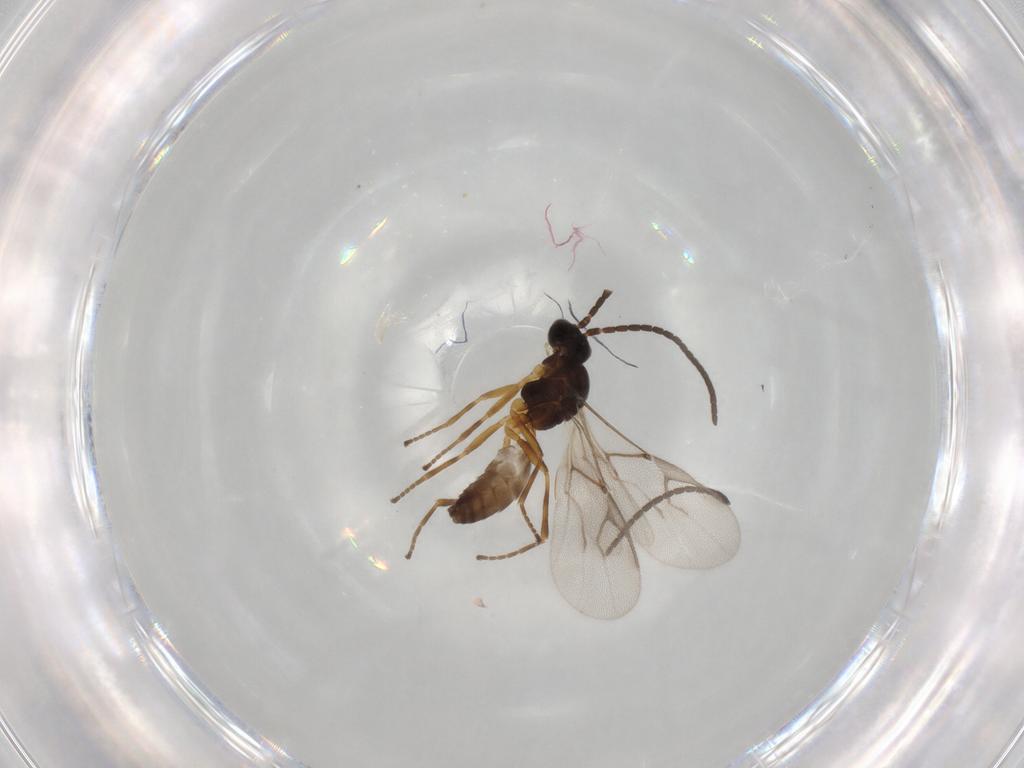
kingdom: Animalia
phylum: Arthropoda
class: Insecta
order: Hymenoptera
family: Braconidae
